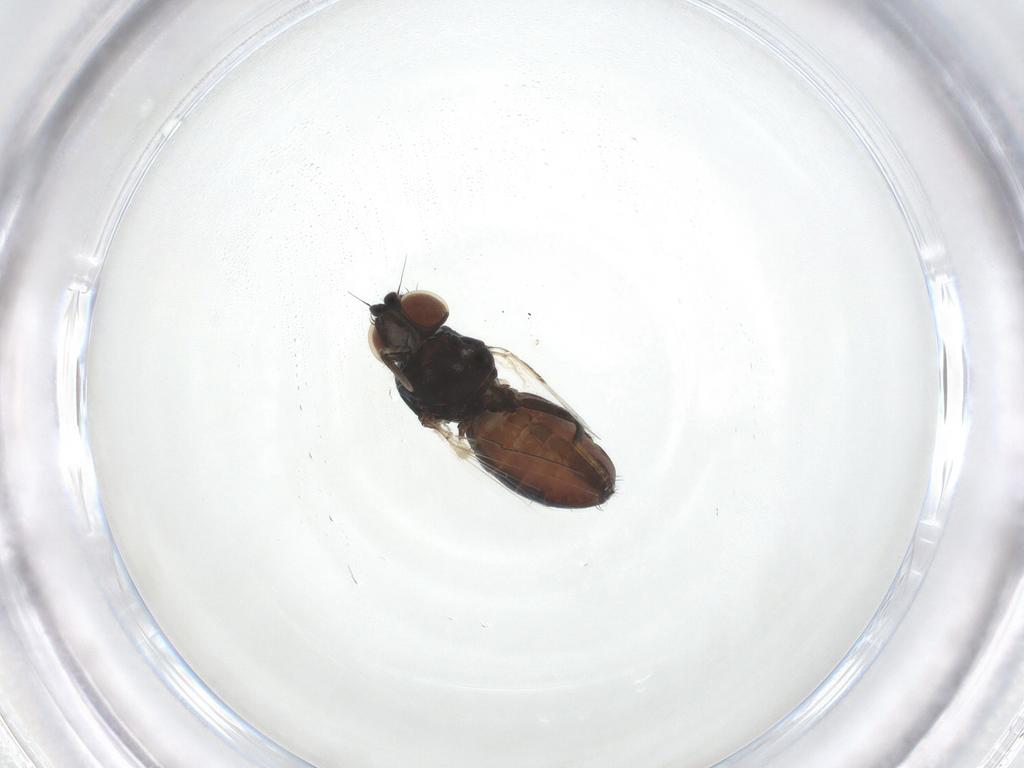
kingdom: Animalia
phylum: Arthropoda
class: Insecta
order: Diptera
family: Milichiidae
